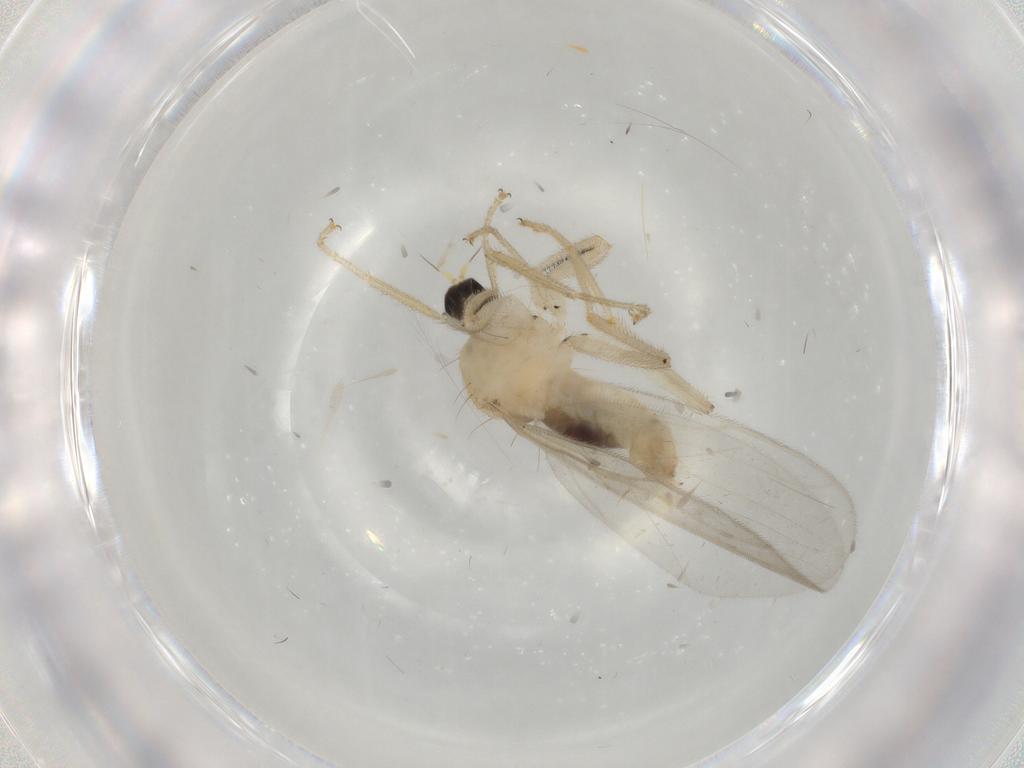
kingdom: Animalia
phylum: Arthropoda
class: Insecta
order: Diptera
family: Hybotidae
